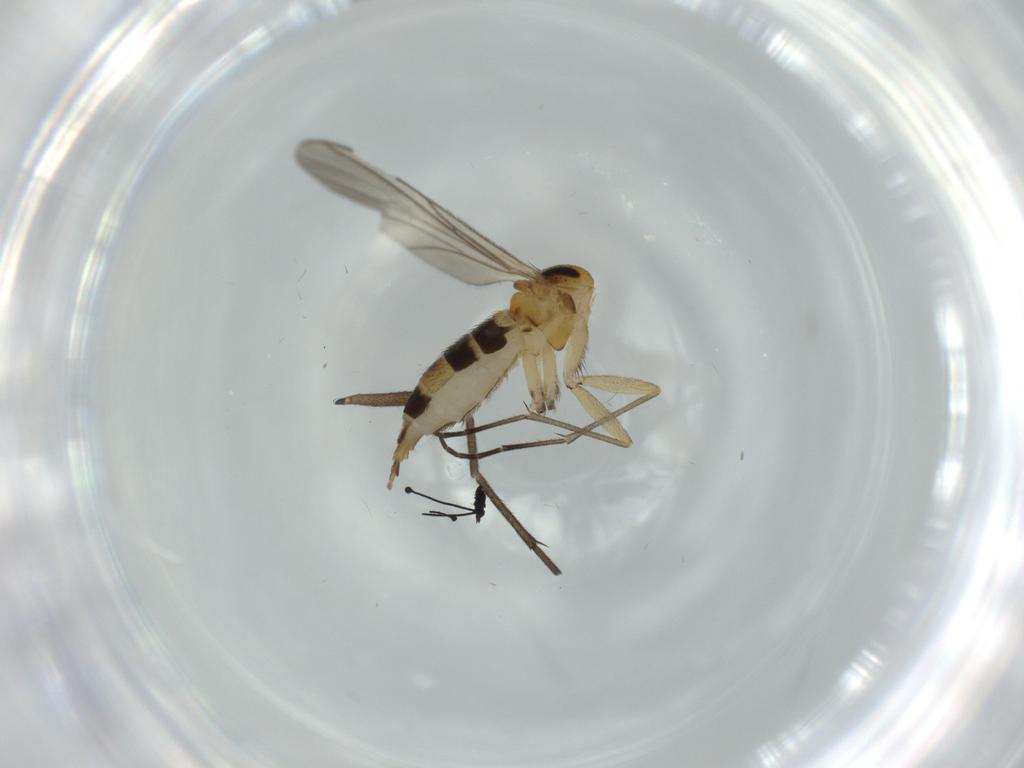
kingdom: Animalia
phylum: Arthropoda
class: Insecta
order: Diptera
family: Sciaridae
